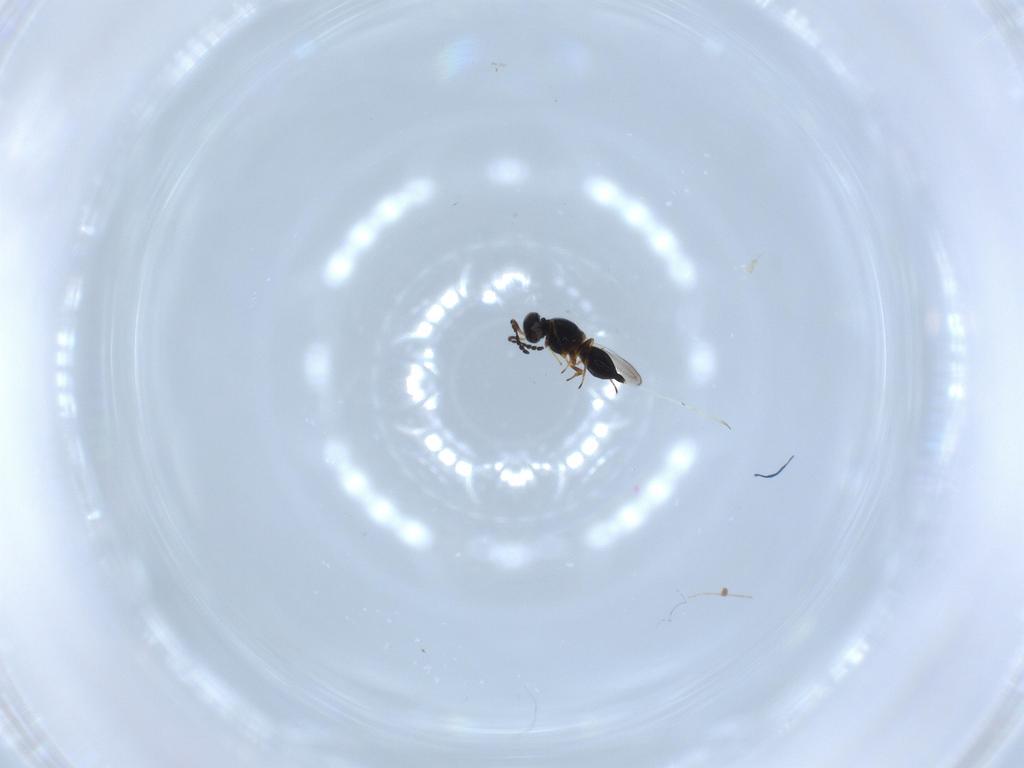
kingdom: Animalia
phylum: Arthropoda
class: Insecta
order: Hymenoptera
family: Platygastridae
